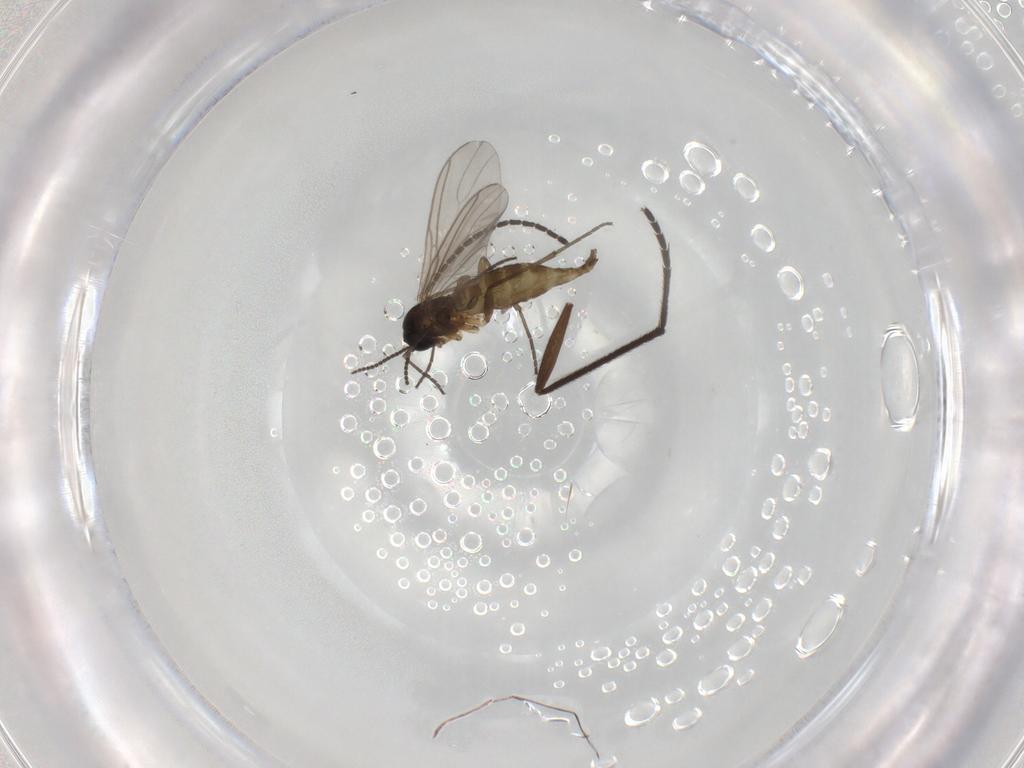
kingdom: Animalia
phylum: Arthropoda
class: Insecta
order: Diptera
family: Sciaridae
